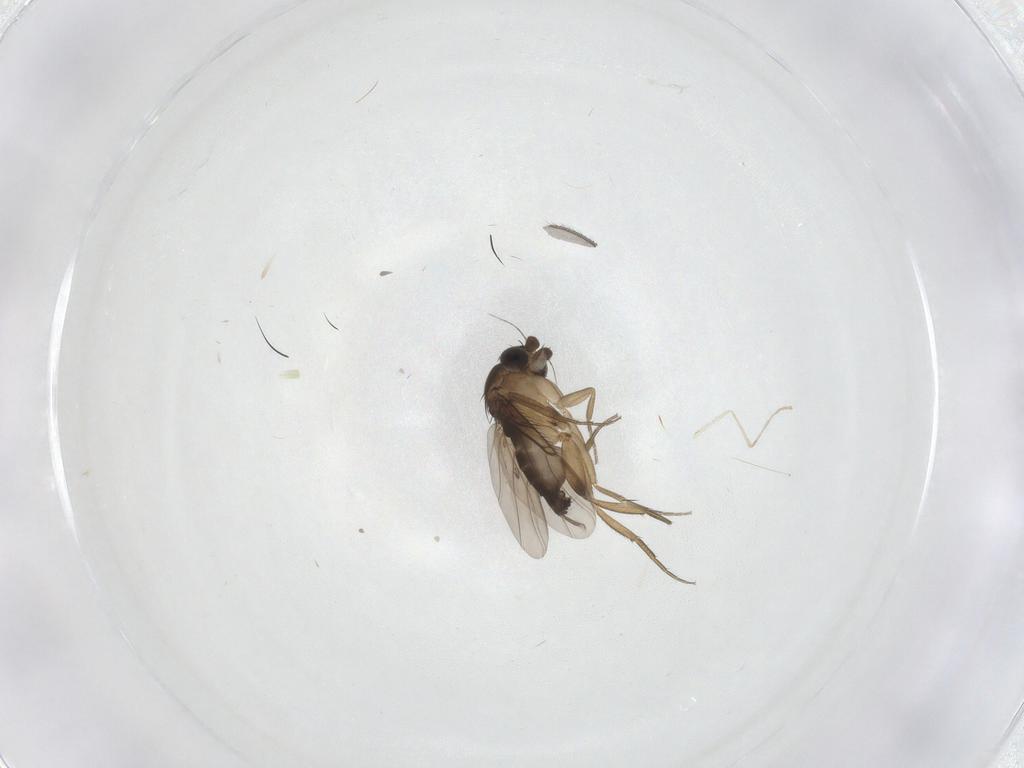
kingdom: Animalia
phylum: Arthropoda
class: Insecta
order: Diptera
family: Phoridae
